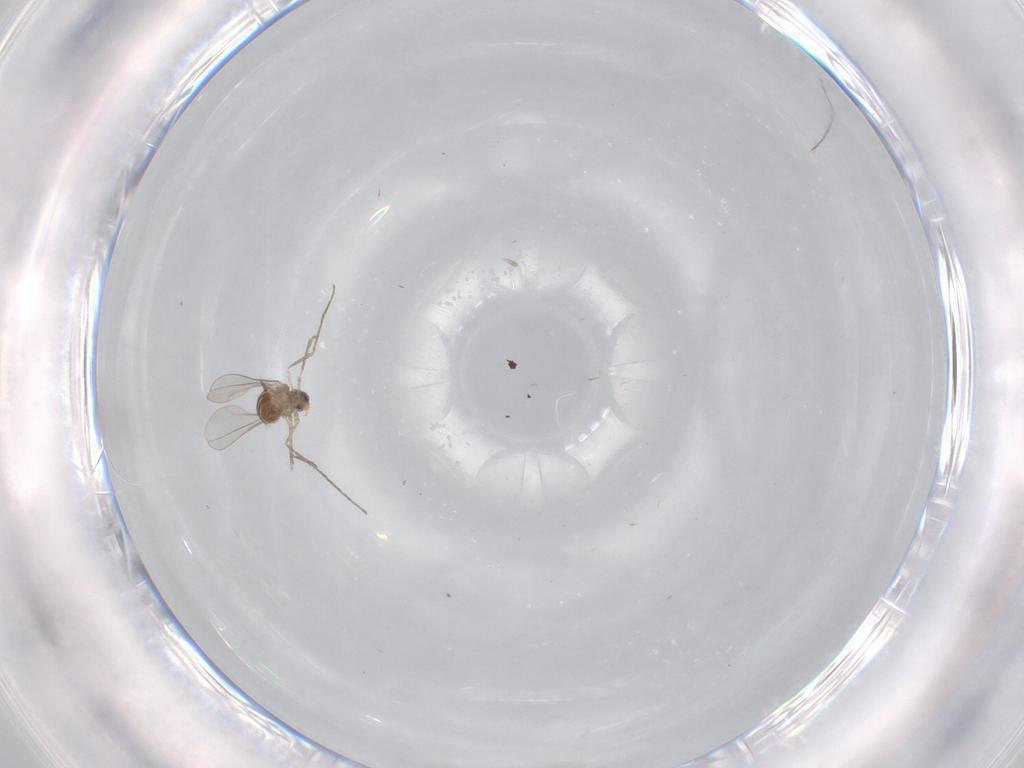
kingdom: Animalia
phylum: Arthropoda
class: Insecta
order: Diptera
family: Cecidomyiidae
